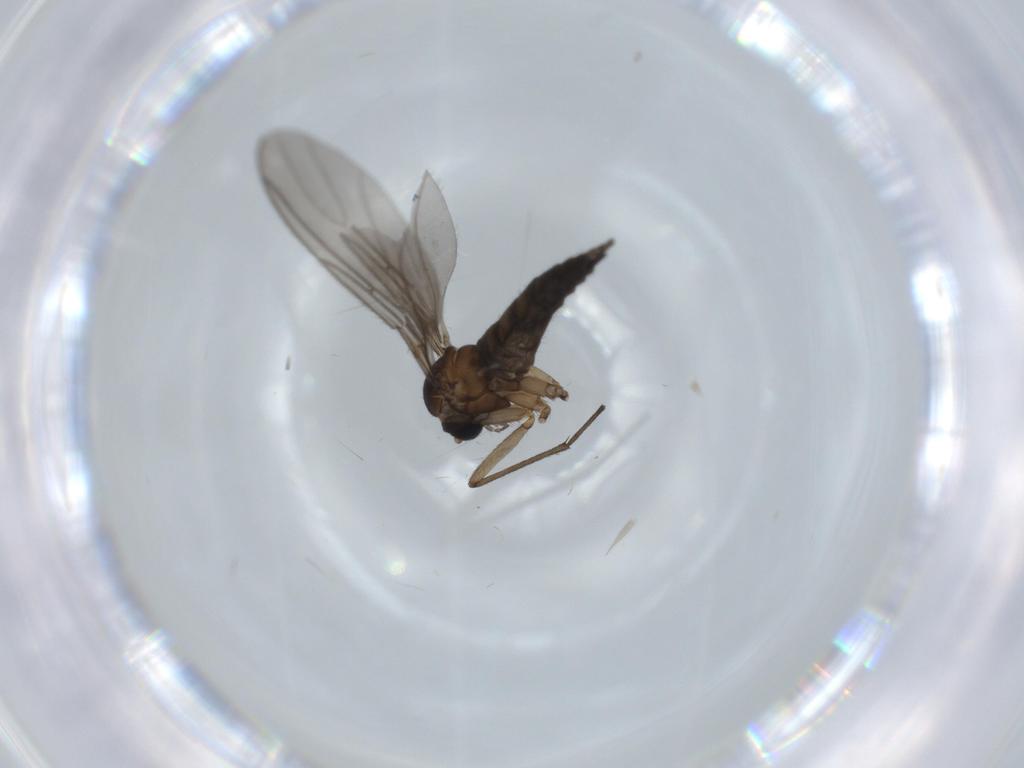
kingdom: Animalia
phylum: Arthropoda
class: Insecta
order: Diptera
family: Sciaridae
